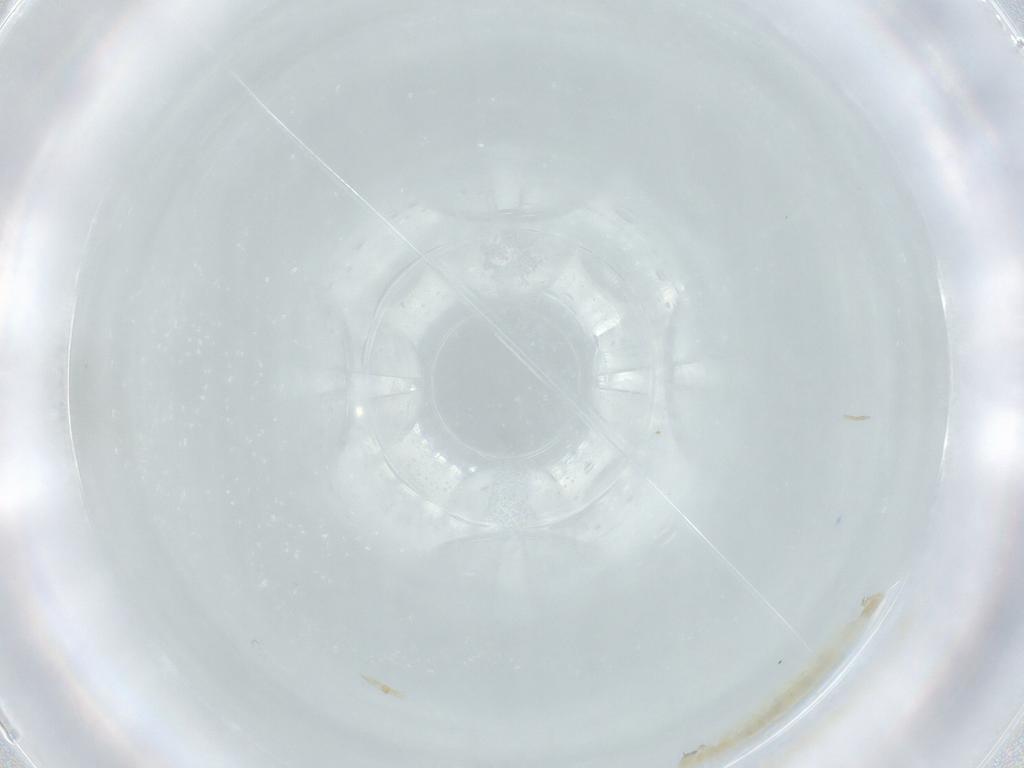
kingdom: Animalia
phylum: Arthropoda
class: Insecta
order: Diptera
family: Chironomidae
